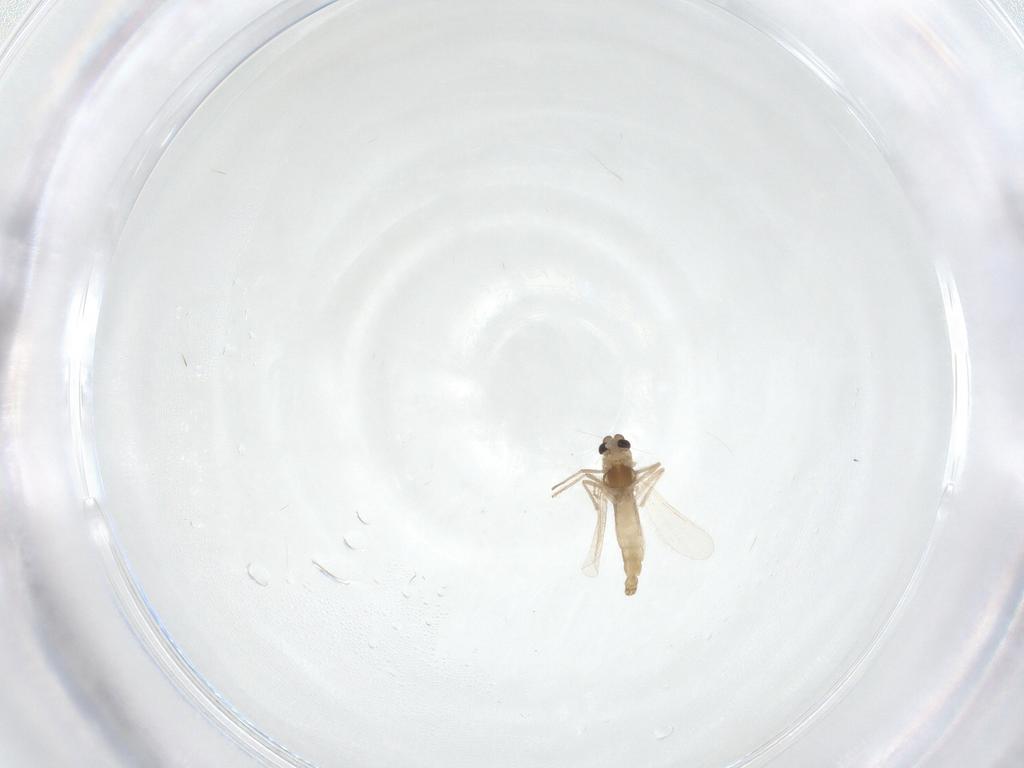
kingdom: Animalia
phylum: Arthropoda
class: Insecta
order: Diptera
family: Chironomidae
